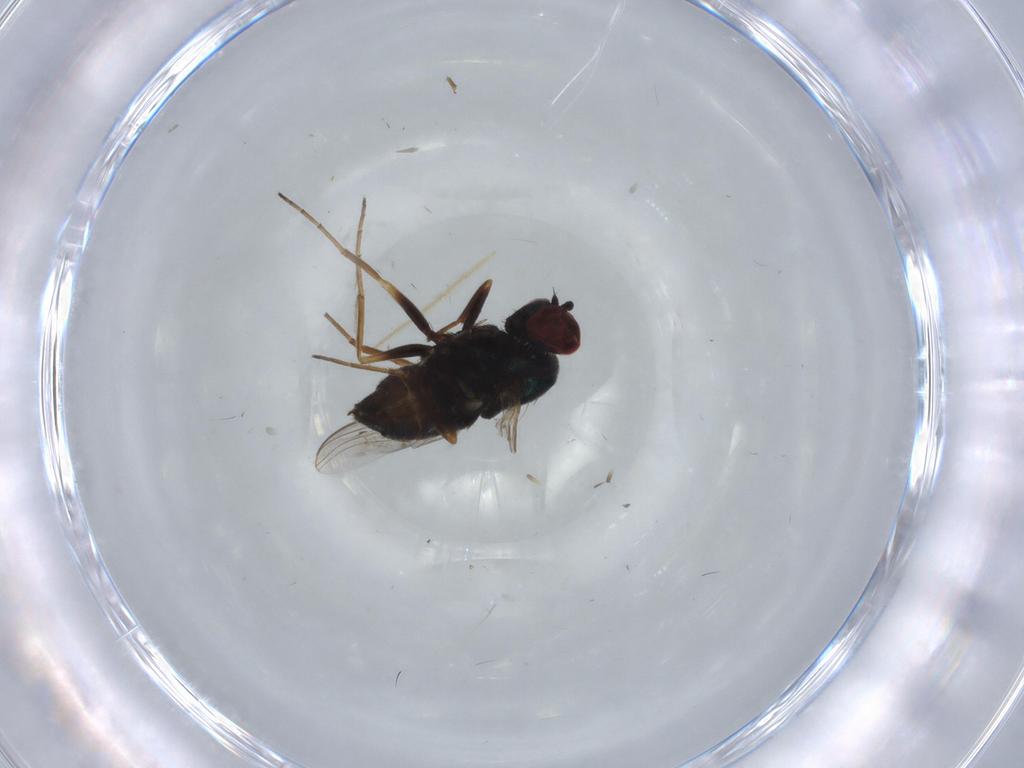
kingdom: Animalia
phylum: Arthropoda
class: Insecta
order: Diptera
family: Dolichopodidae
